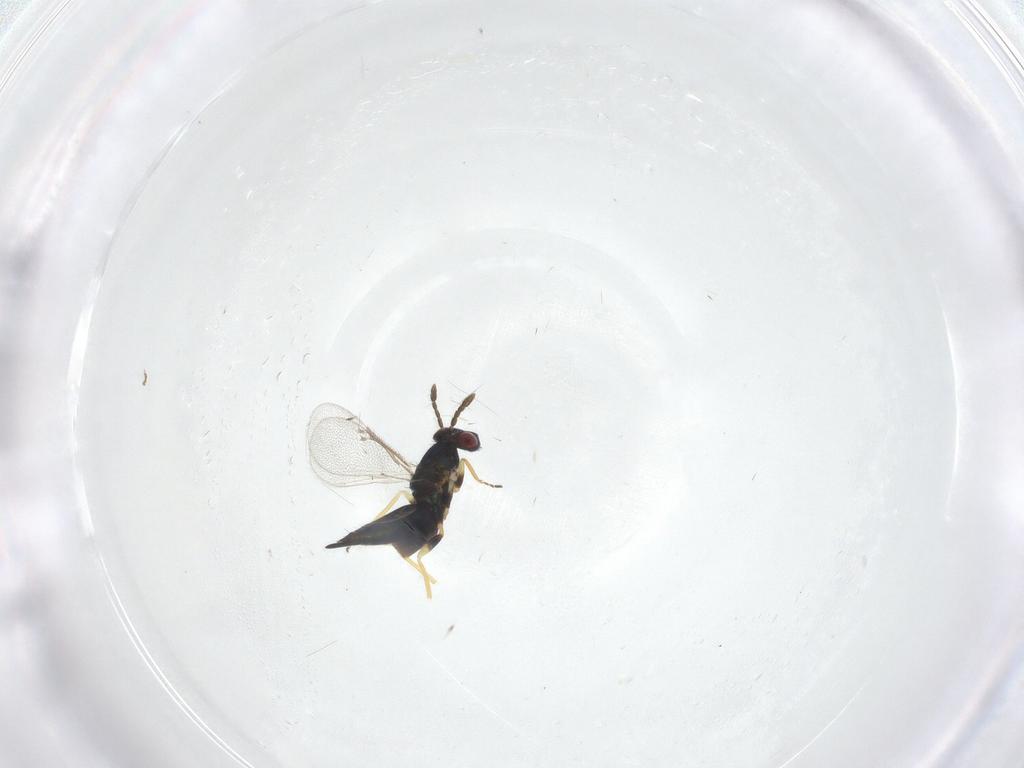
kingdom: Animalia
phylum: Arthropoda
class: Insecta
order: Hymenoptera
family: Eulophidae
